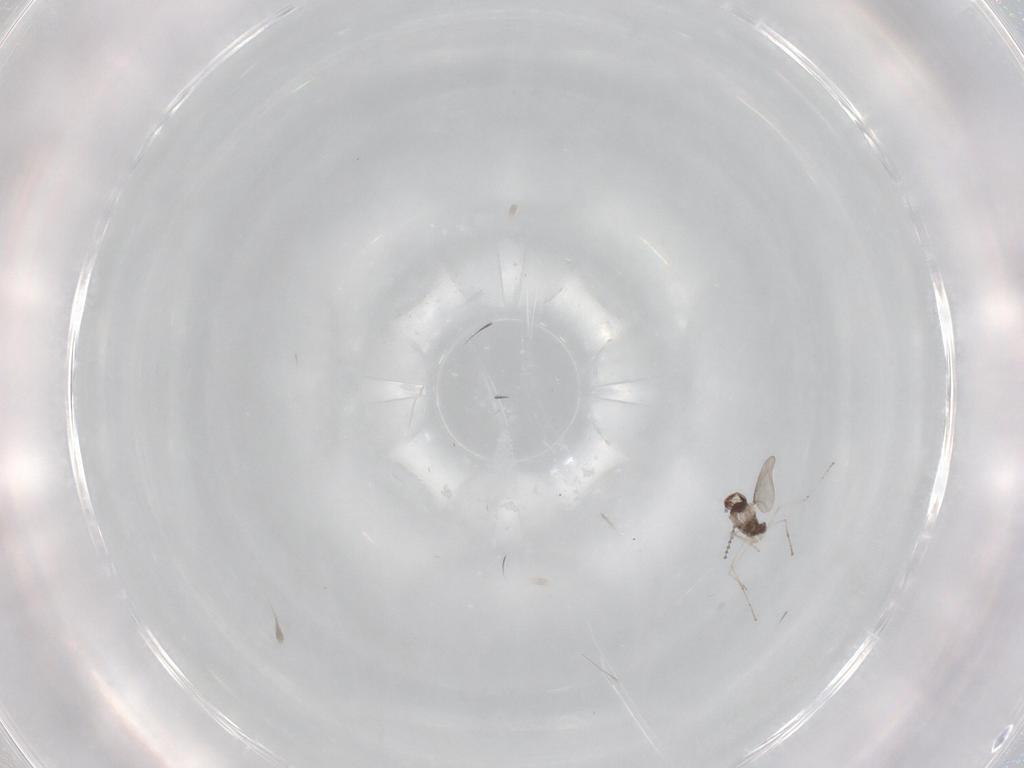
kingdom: Animalia
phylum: Arthropoda
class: Insecta
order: Diptera
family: Cecidomyiidae
